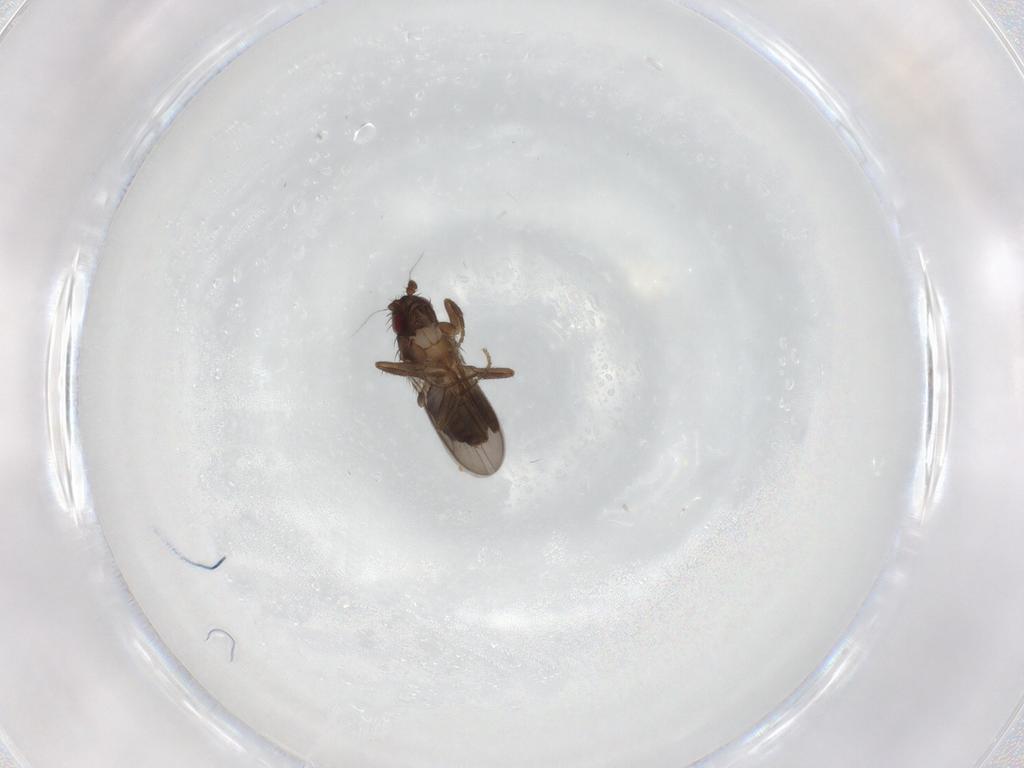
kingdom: Animalia
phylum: Arthropoda
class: Insecta
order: Diptera
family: Sphaeroceridae
